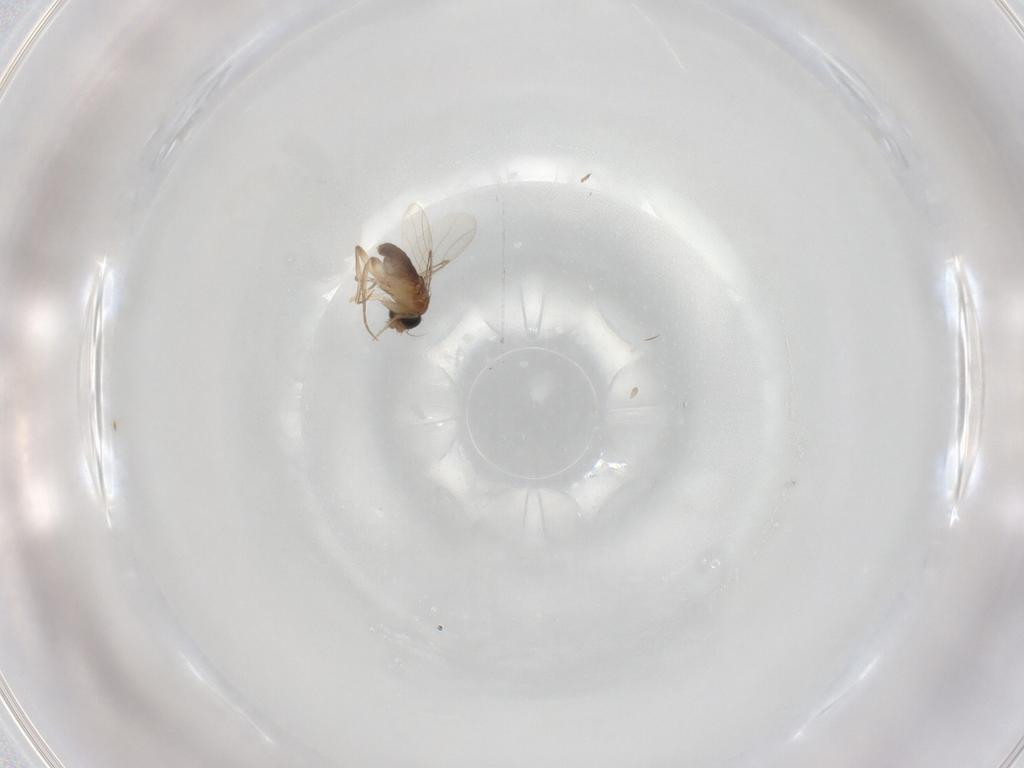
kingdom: Animalia
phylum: Arthropoda
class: Insecta
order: Diptera
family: Phoridae
